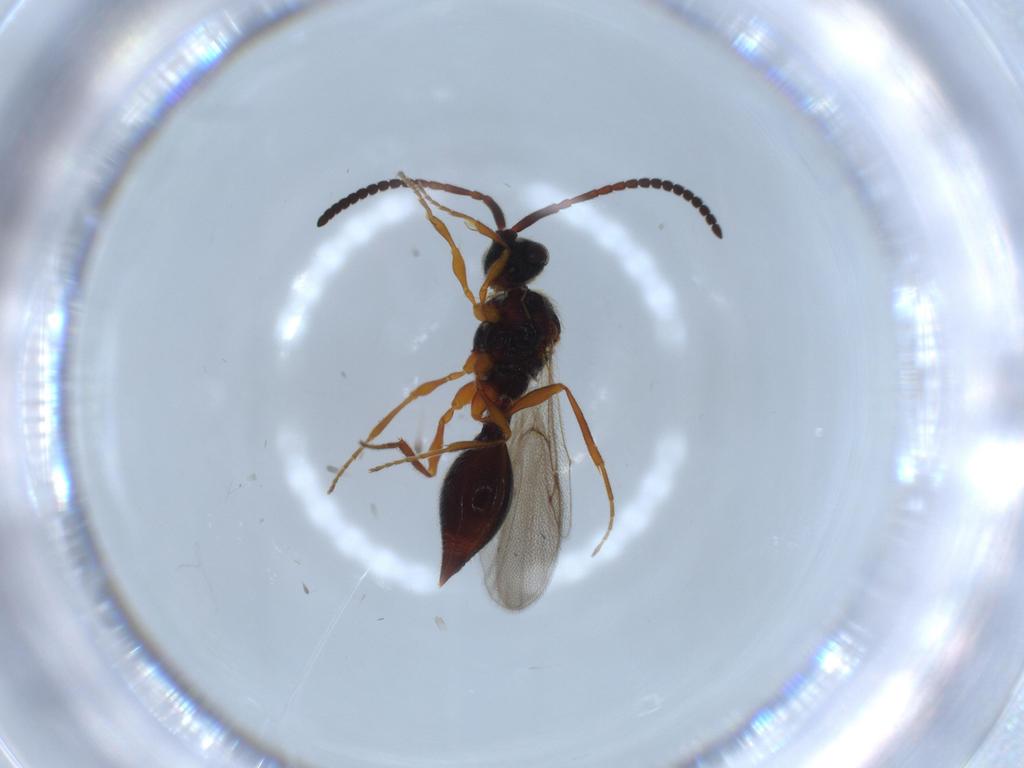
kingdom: Animalia
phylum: Arthropoda
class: Insecta
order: Hymenoptera
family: Diapriidae
